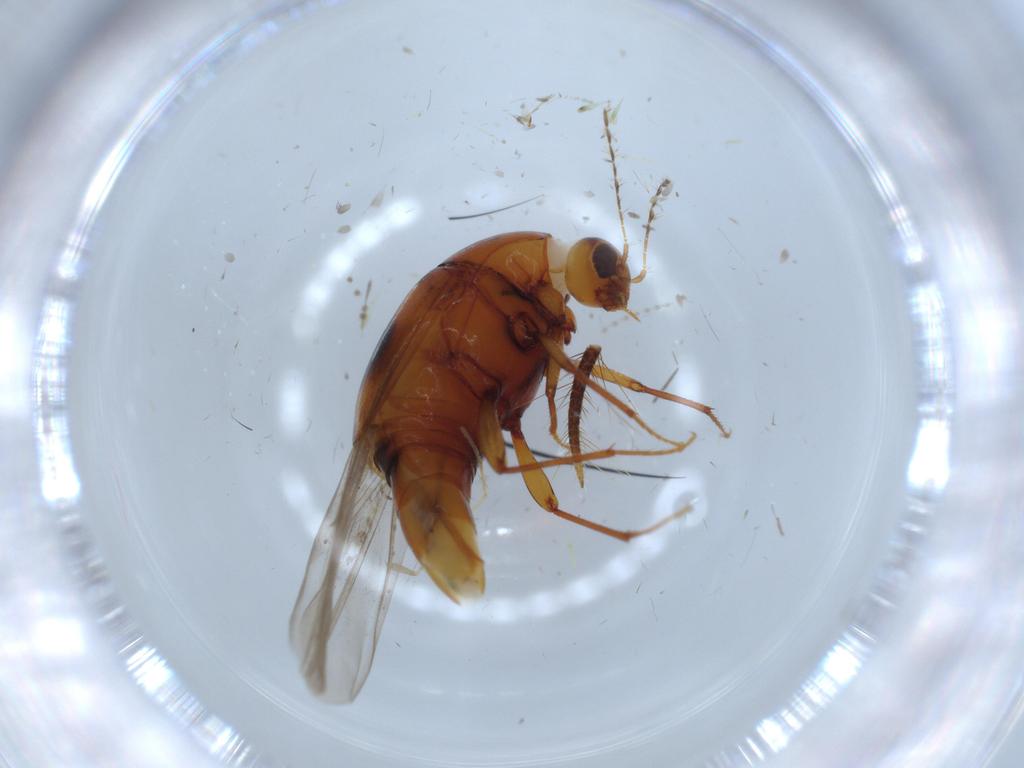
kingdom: Animalia
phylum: Arthropoda
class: Insecta
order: Coleoptera
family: Staphylinidae
